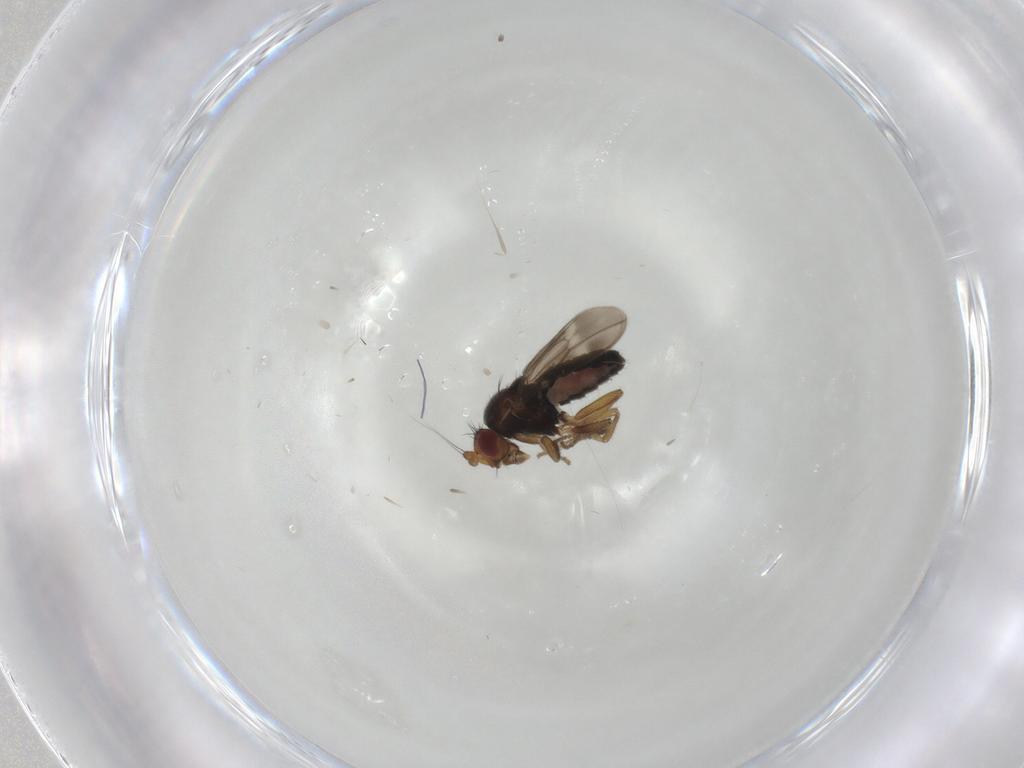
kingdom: Animalia
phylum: Arthropoda
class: Insecta
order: Diptera
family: Sphaeroceridae
